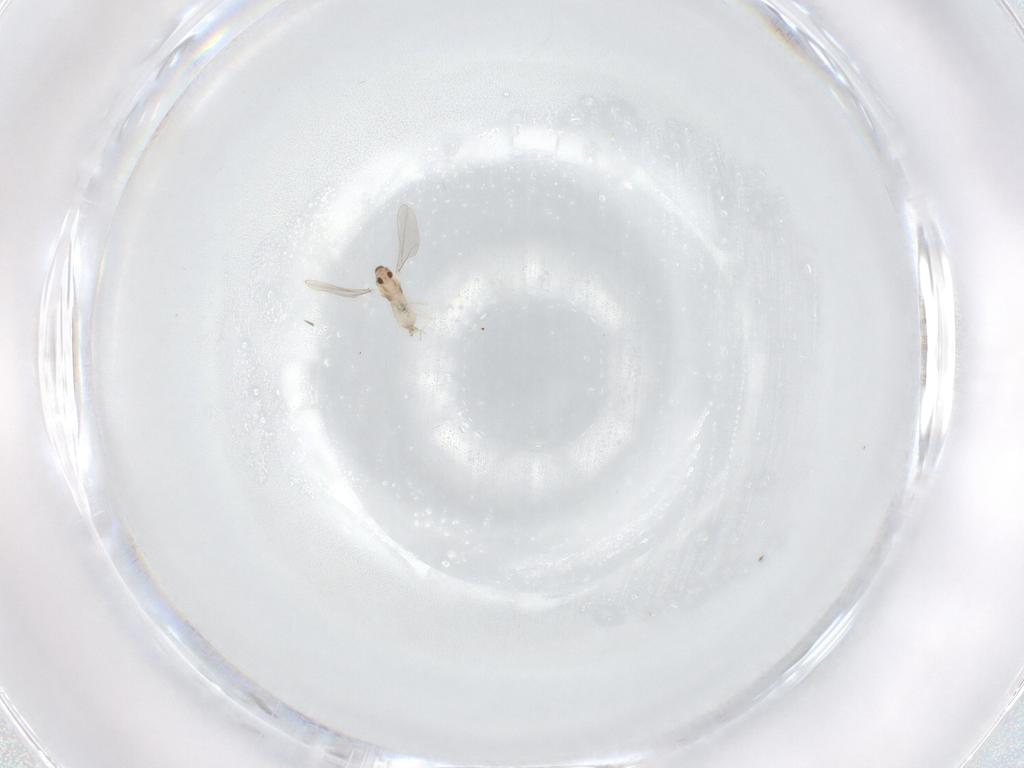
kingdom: Animalia
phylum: Arthropoda
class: Insecta
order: Diptera
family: Cecidomyiidae
